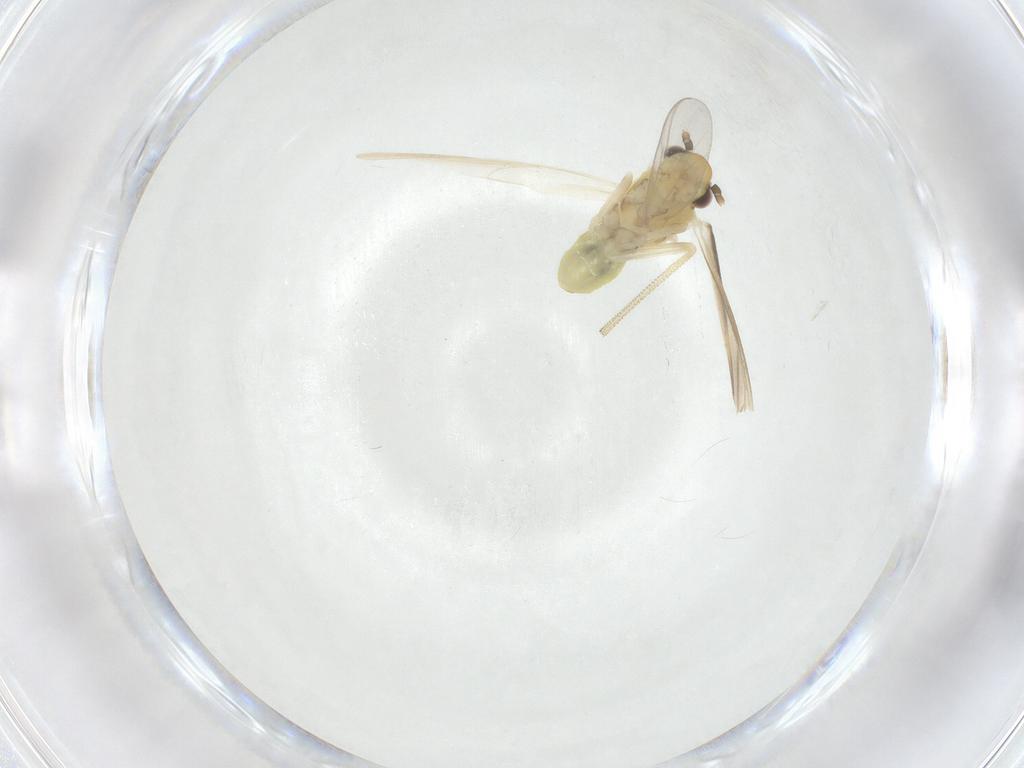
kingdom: Animalia
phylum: Arthropoda
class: Insecta
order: Psocodea
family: Caeciliusidae
